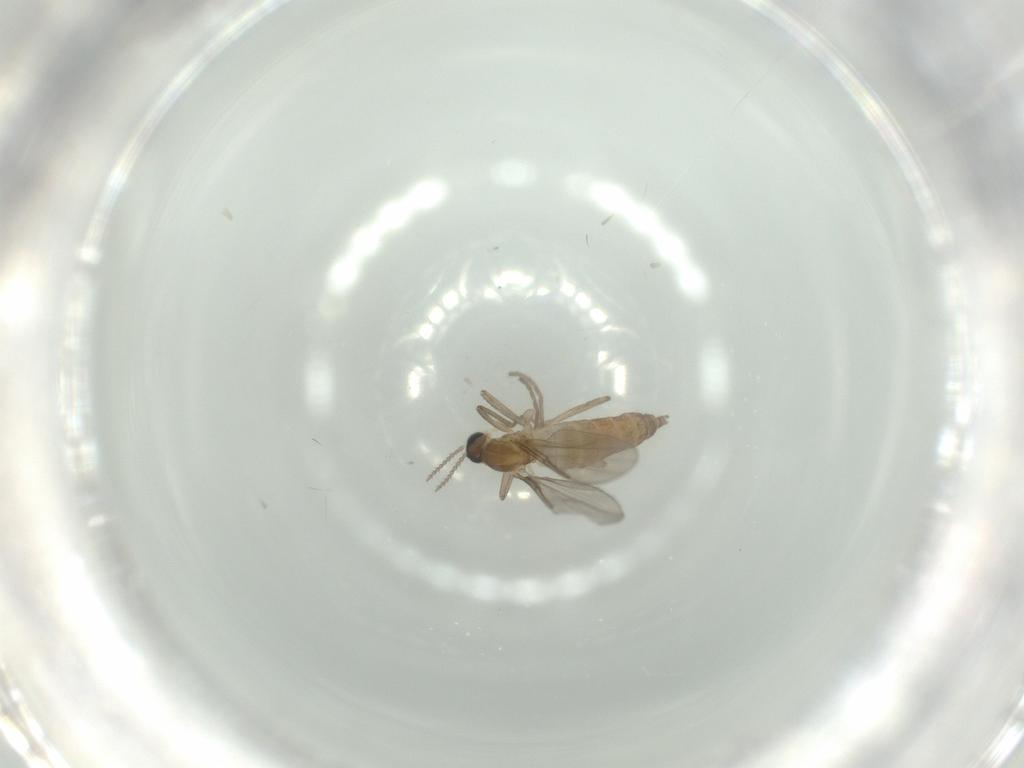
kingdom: Animalia
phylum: Arthropoda
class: Insecta
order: Diptera
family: Cecidomyiidae
